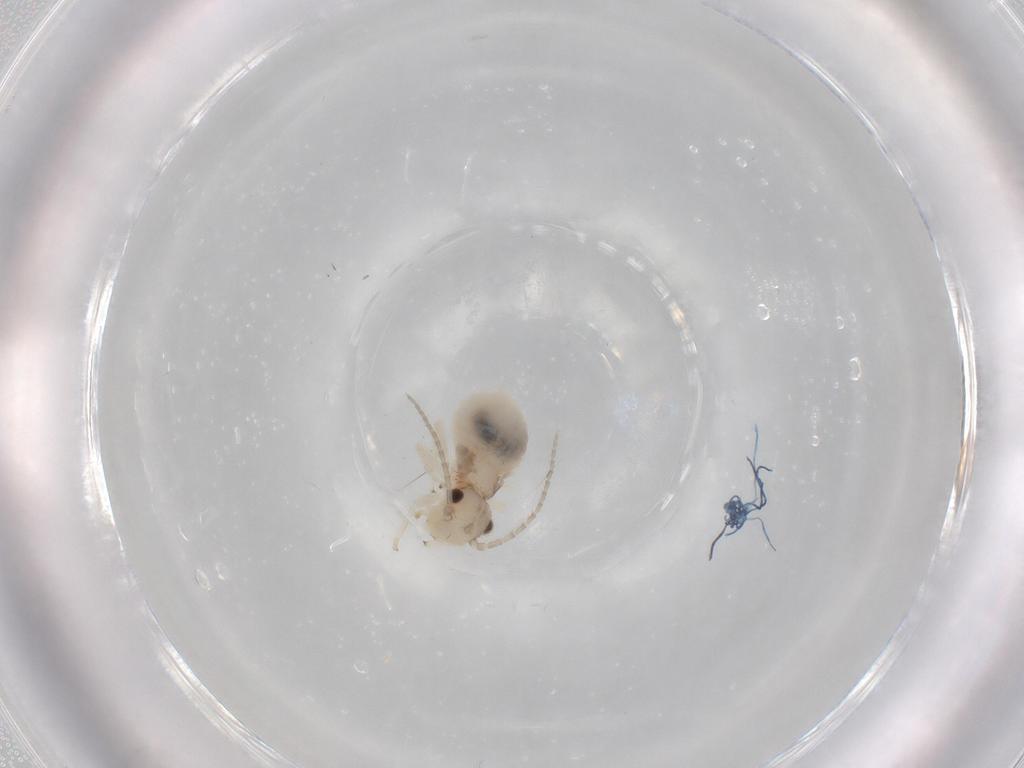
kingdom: Animalia
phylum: Arthropoda
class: Insecta
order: Psocodea
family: Amphipsocidae
